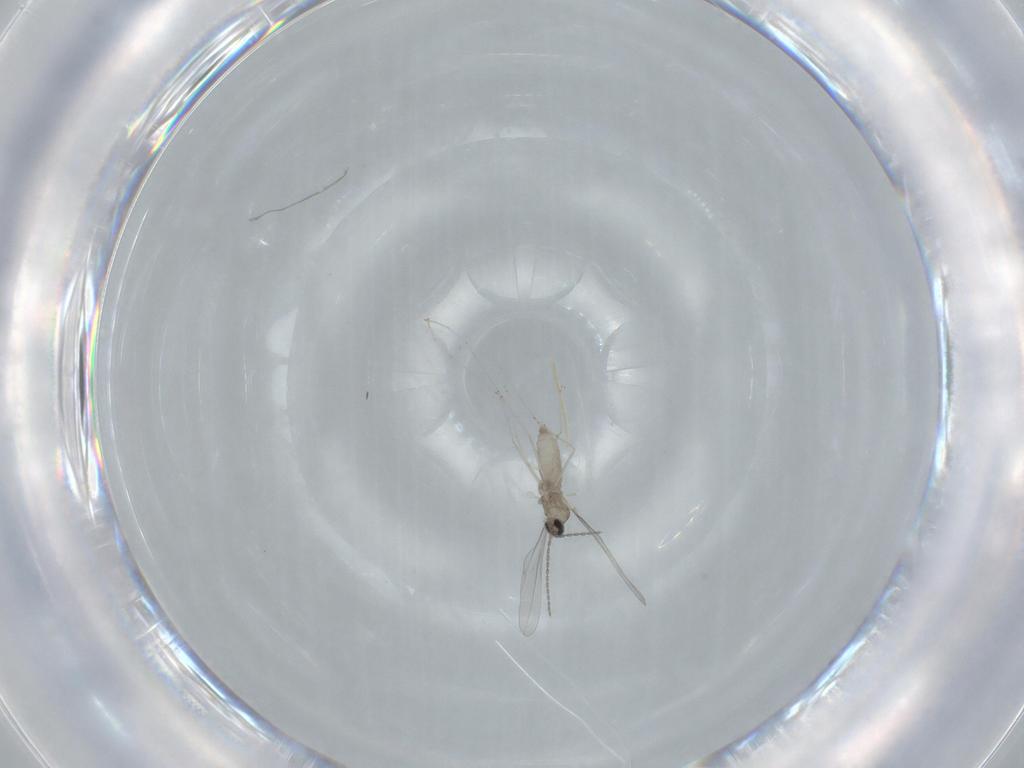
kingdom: Animalia
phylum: Arthropoda
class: Insecta
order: Diptera
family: Cecidomyiidae
